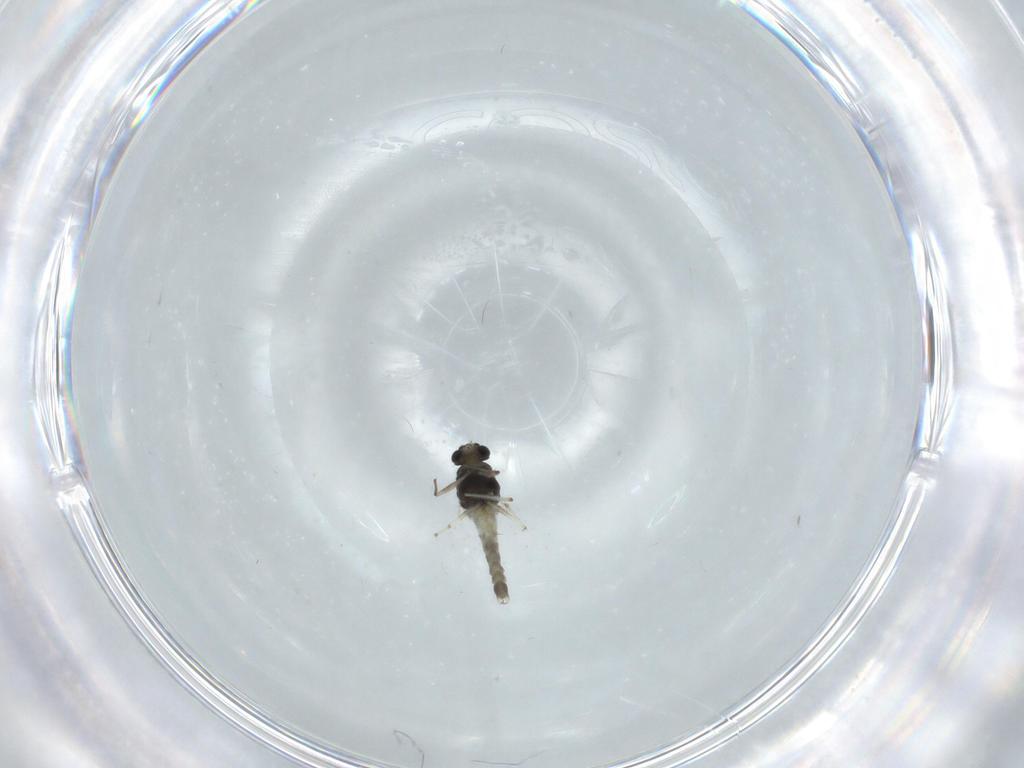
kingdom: Animalia
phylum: Arthropoda
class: Insecta
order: Diptera
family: Chironomidae
